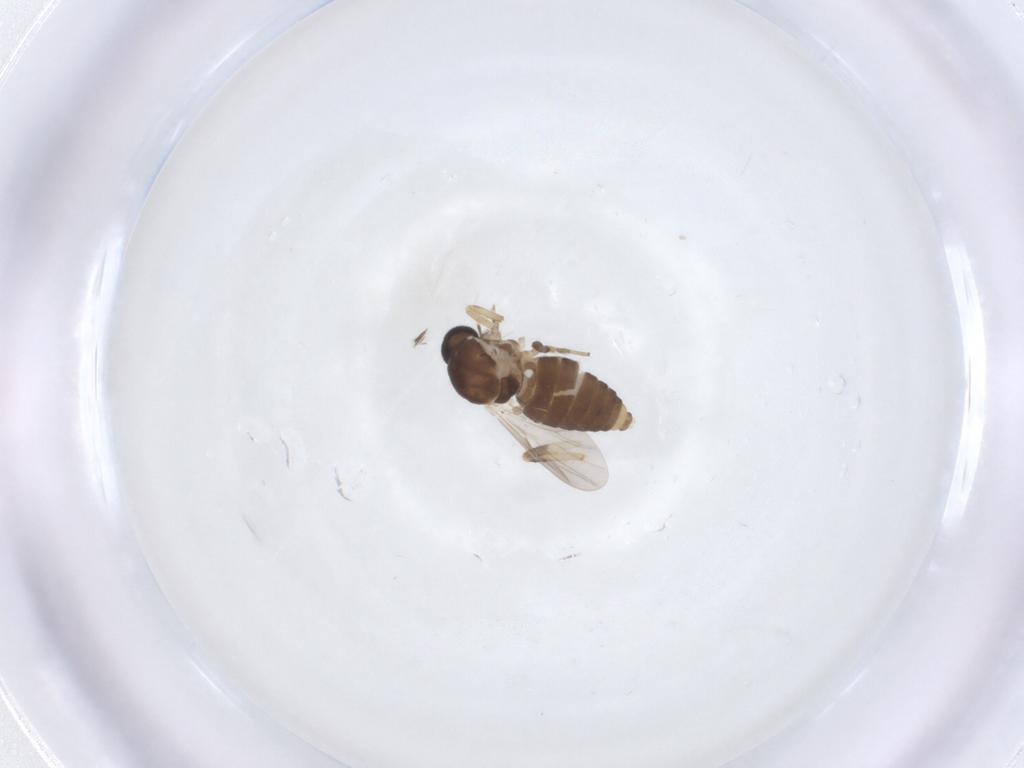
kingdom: Animalia
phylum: Arthropoda
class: Insecta
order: Diptera
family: Ceratopogonidae
